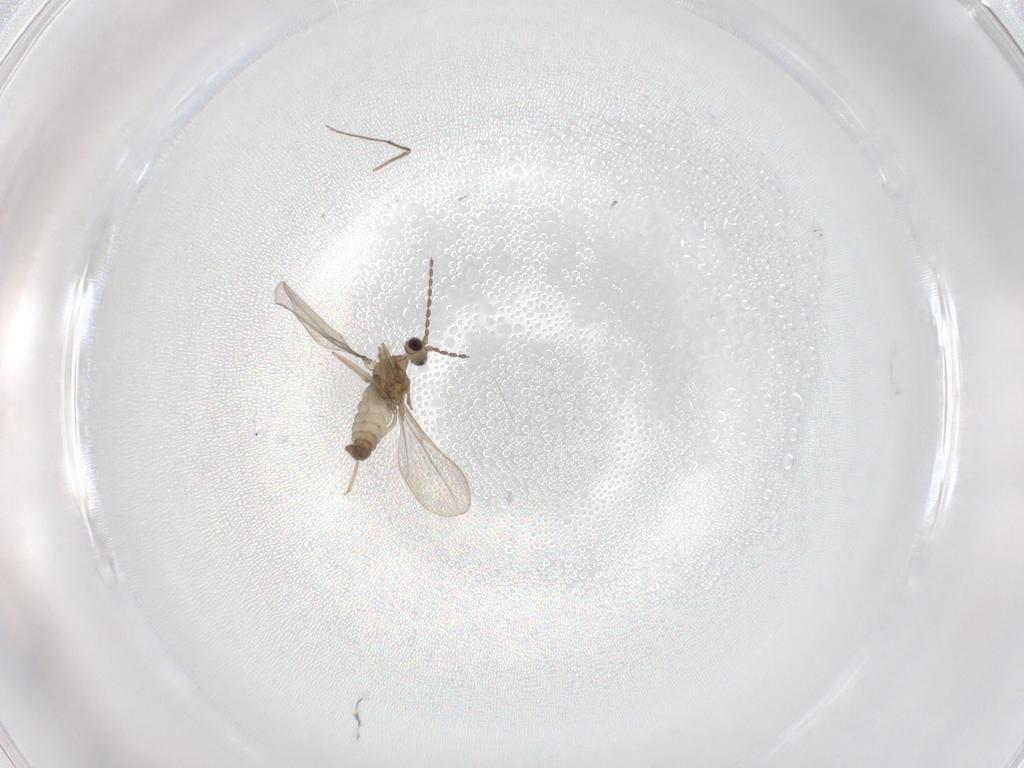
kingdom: Animalia
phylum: Arthropoda
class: Insecta
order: Diptera
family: Cecidomyiidae
